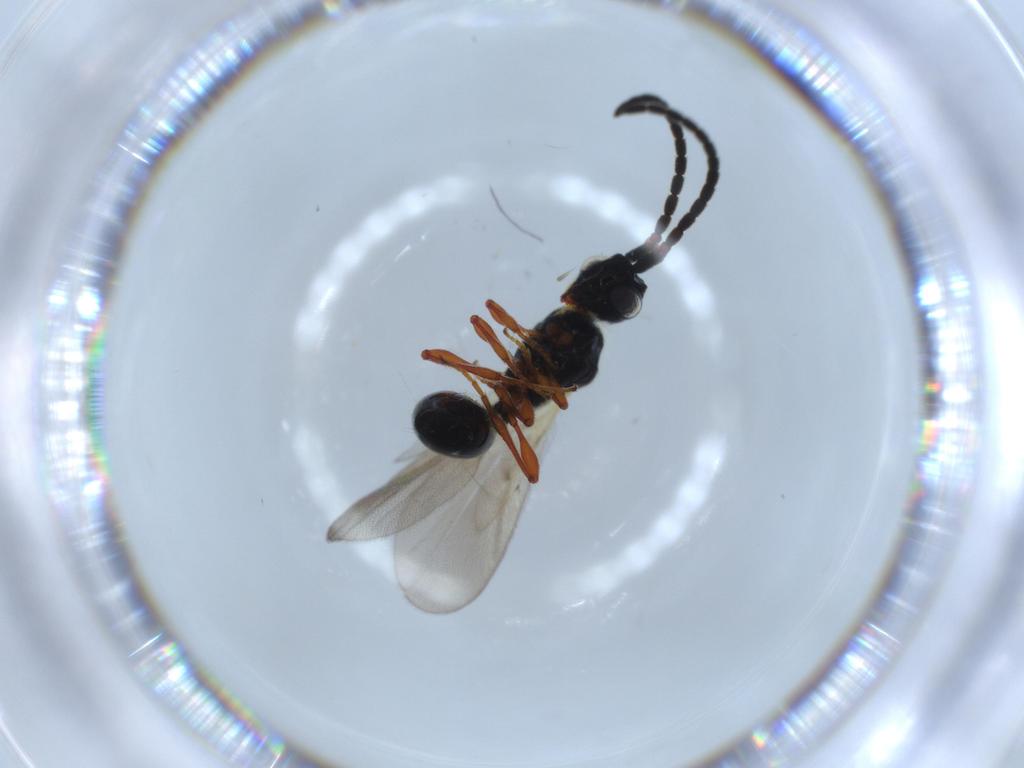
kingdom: Animalia
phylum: Arthropoda
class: Insecta
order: Hymenoptera
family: Diapriidae
